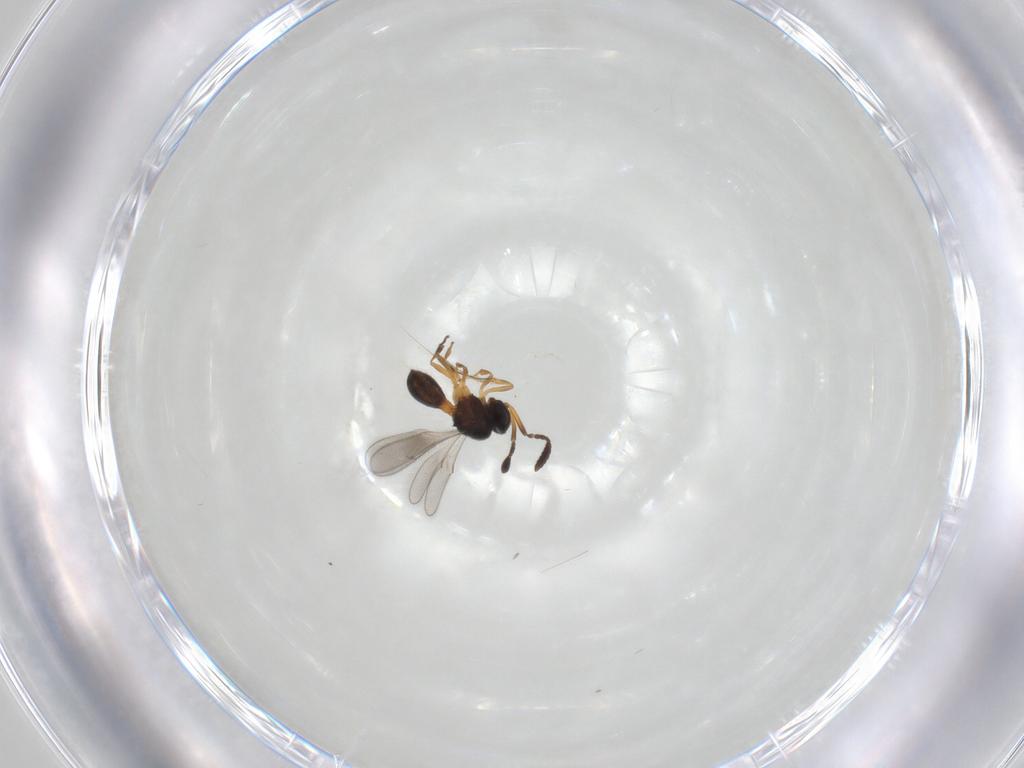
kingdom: Animalia
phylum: Arthropoda
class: Insecta
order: Hymenoptera
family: Scelionidae
